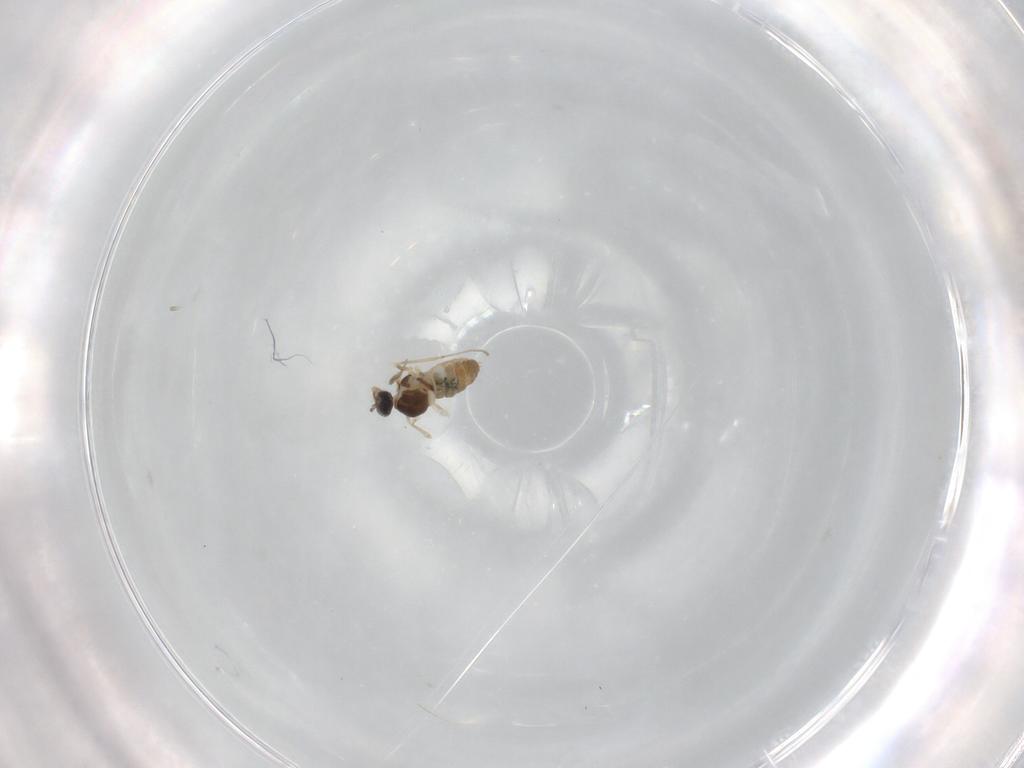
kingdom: Animalia
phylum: Arthropoda
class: Insecta
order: Diptera
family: Cecidomyiidae
